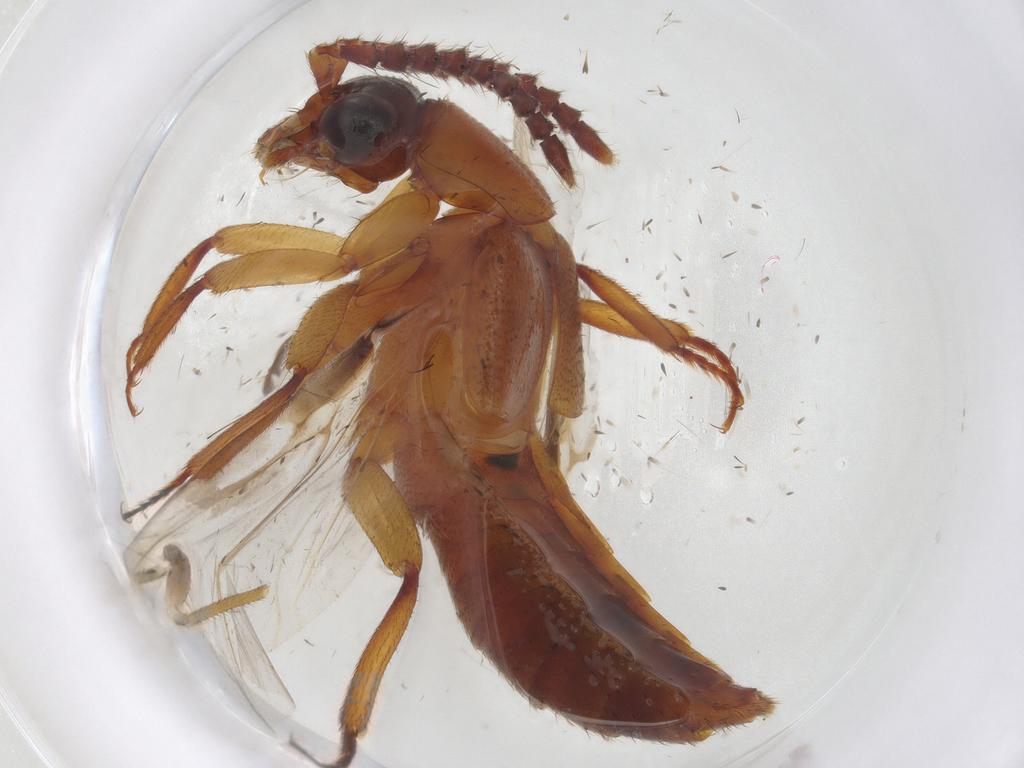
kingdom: Animalia
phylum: Arthropoda
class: Insecta
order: Coleoptera
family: Staphylinidae
